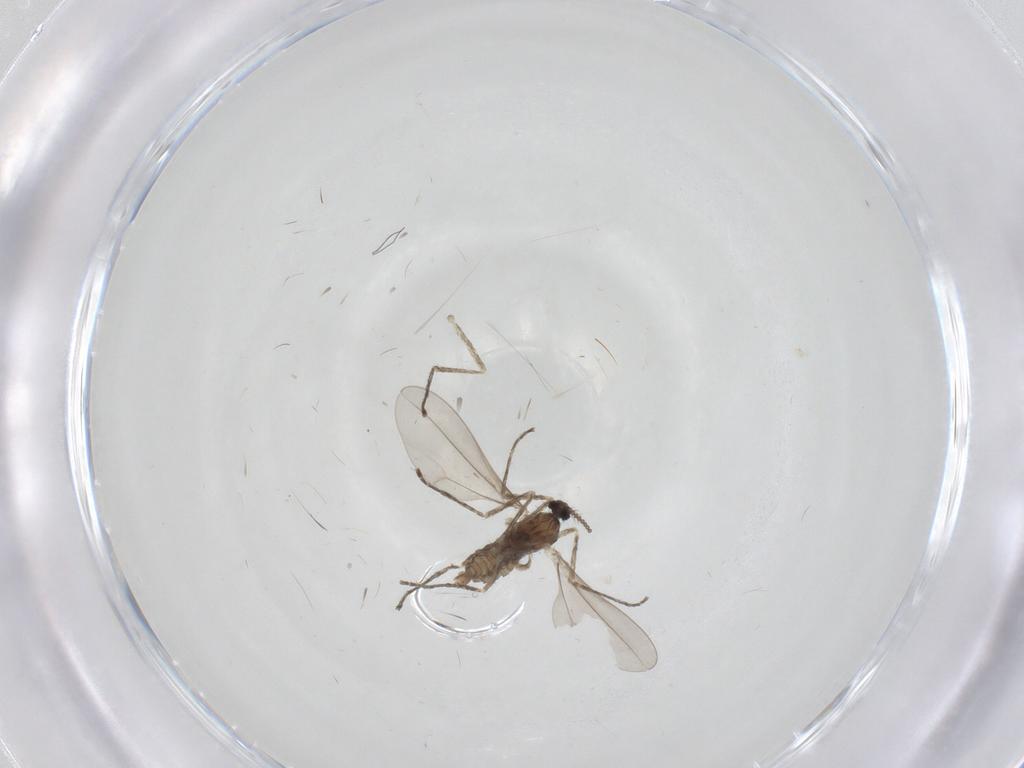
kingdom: Animalia
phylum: Arthropoda
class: Insecta
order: Diptera
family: Cecidomyiidae
